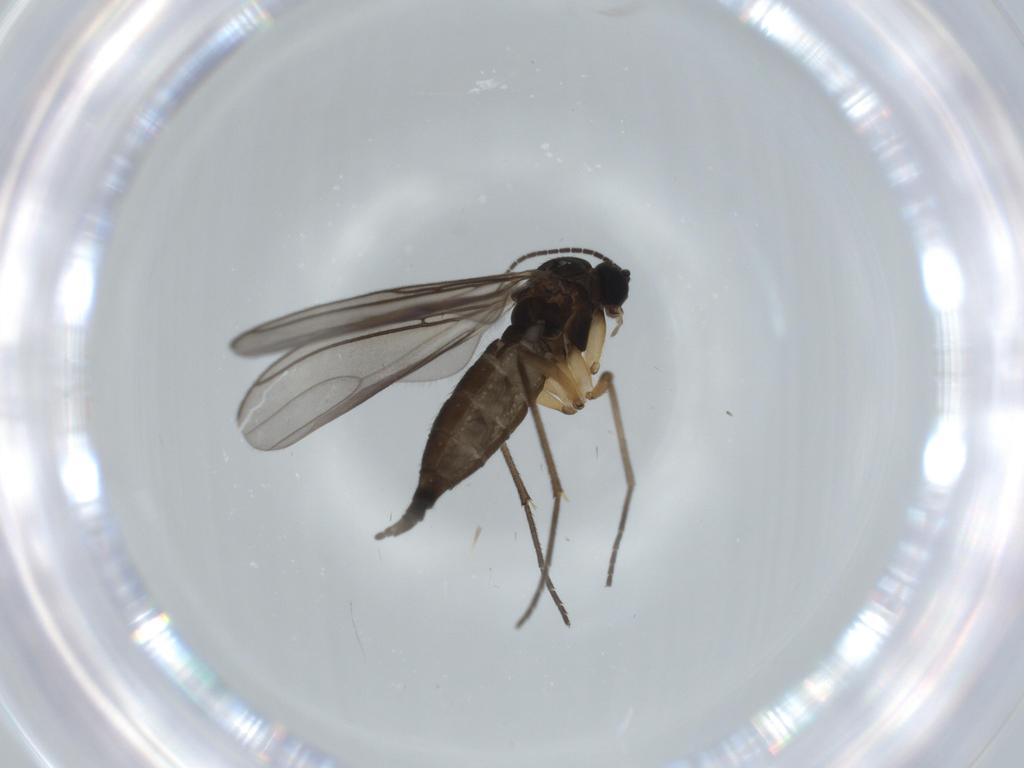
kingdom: Animalia
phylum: Arthropoda
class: Insecta
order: Diptera
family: Sciaridae
